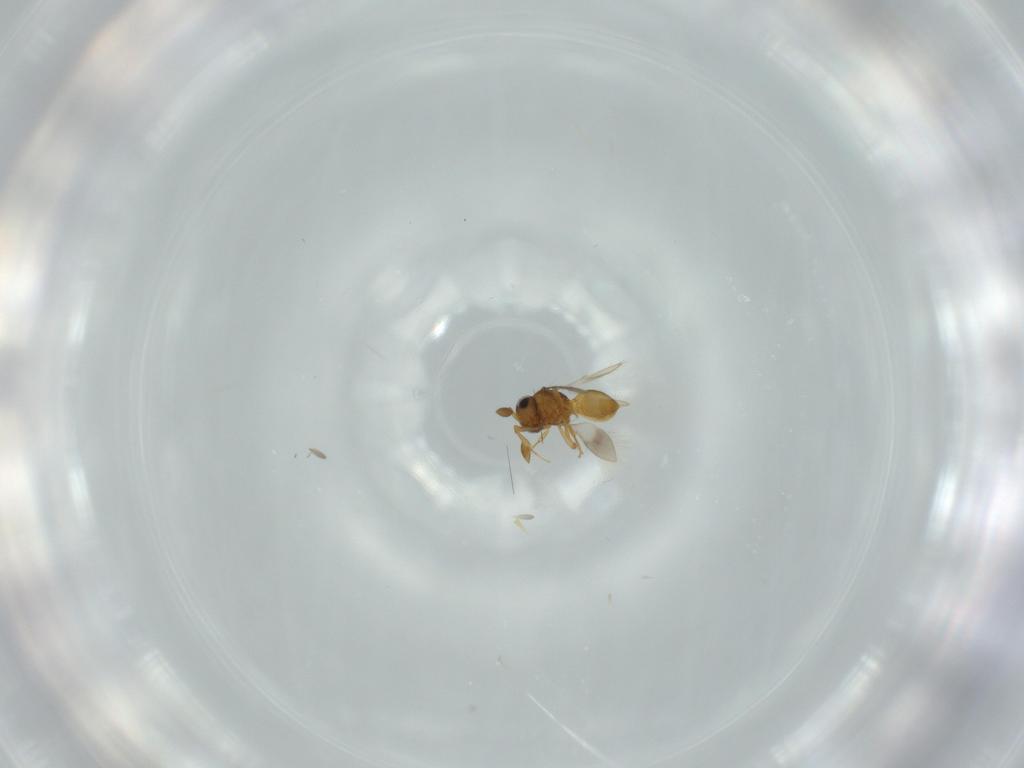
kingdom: Animalia
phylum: Arthropoda
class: Insecta
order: Hymenoptera
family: Scelionidae
